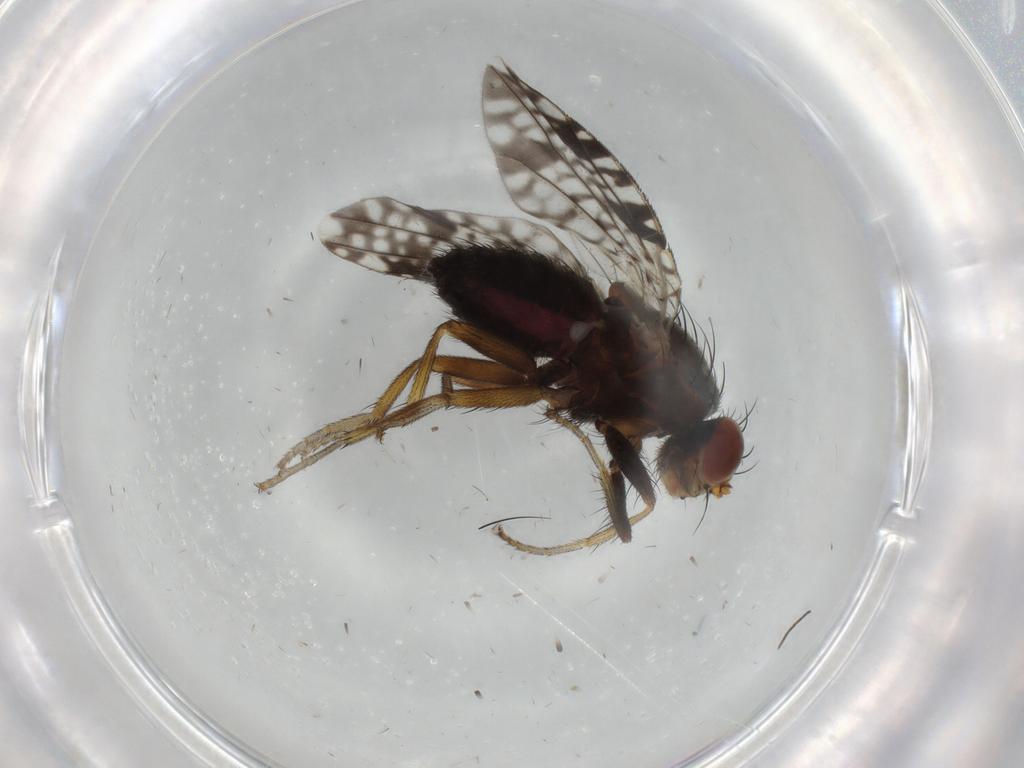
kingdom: Animalia
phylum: Arthropoda
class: Insecta
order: Diptera
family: Tephritidae
